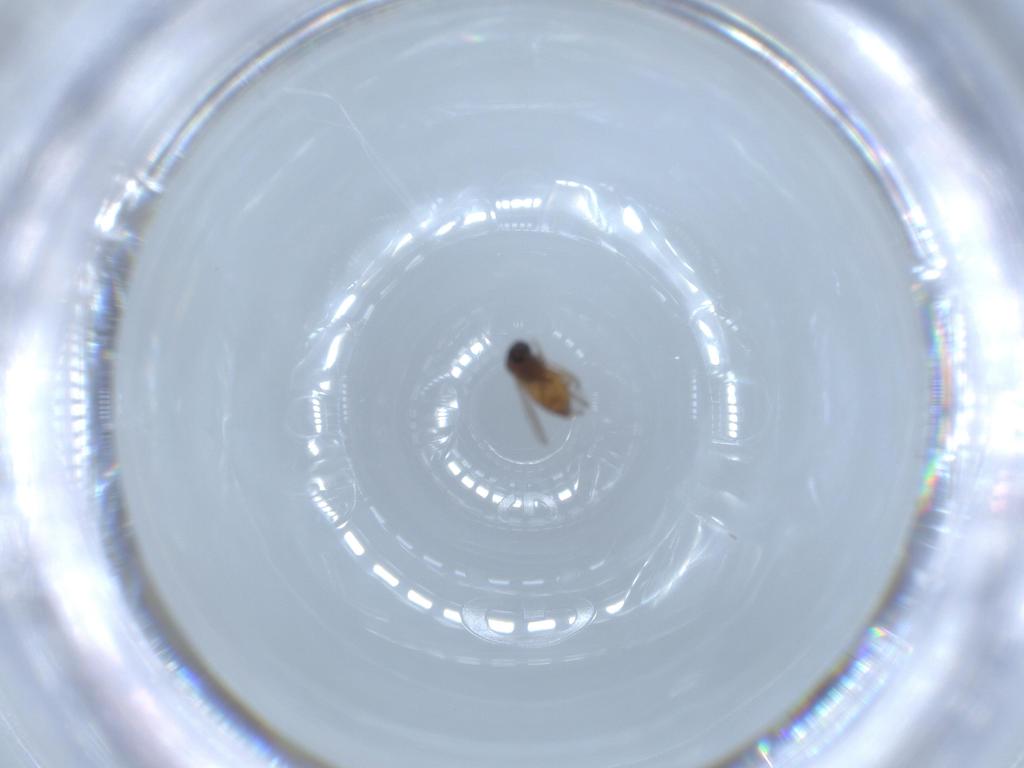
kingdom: Animalia
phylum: Arthropoda
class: Insecta
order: Diptera
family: Ceratopogonidae
